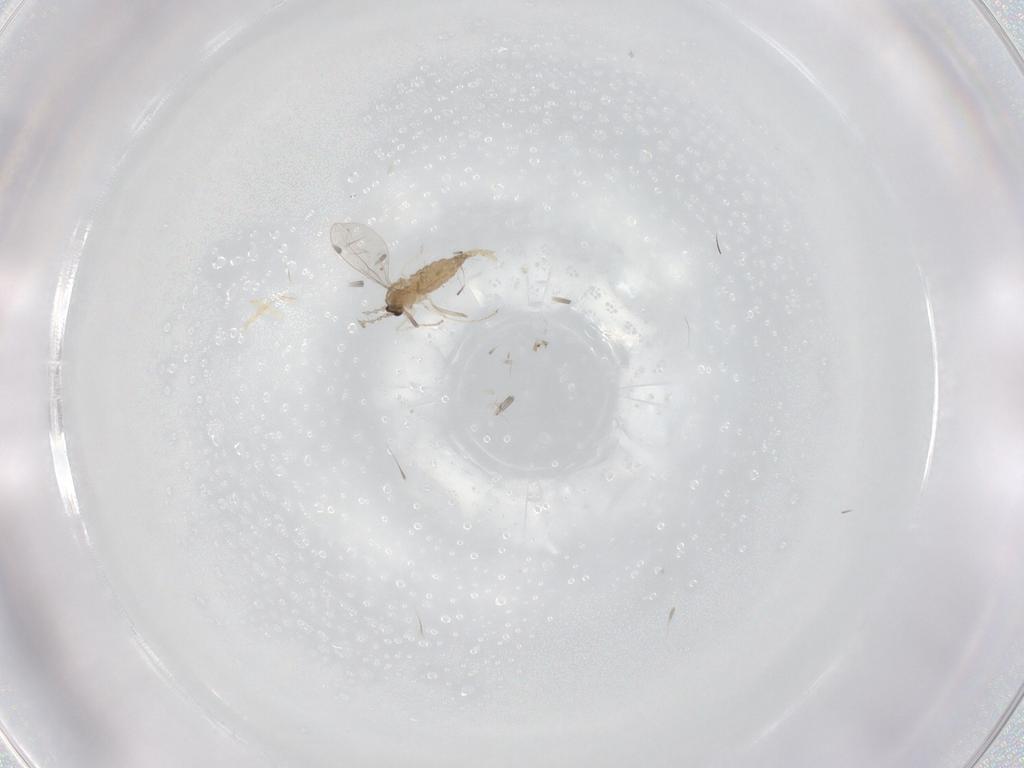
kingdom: Animalia
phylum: Arthropoda
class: Insecta
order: Diptera
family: Cecidomyiidae
